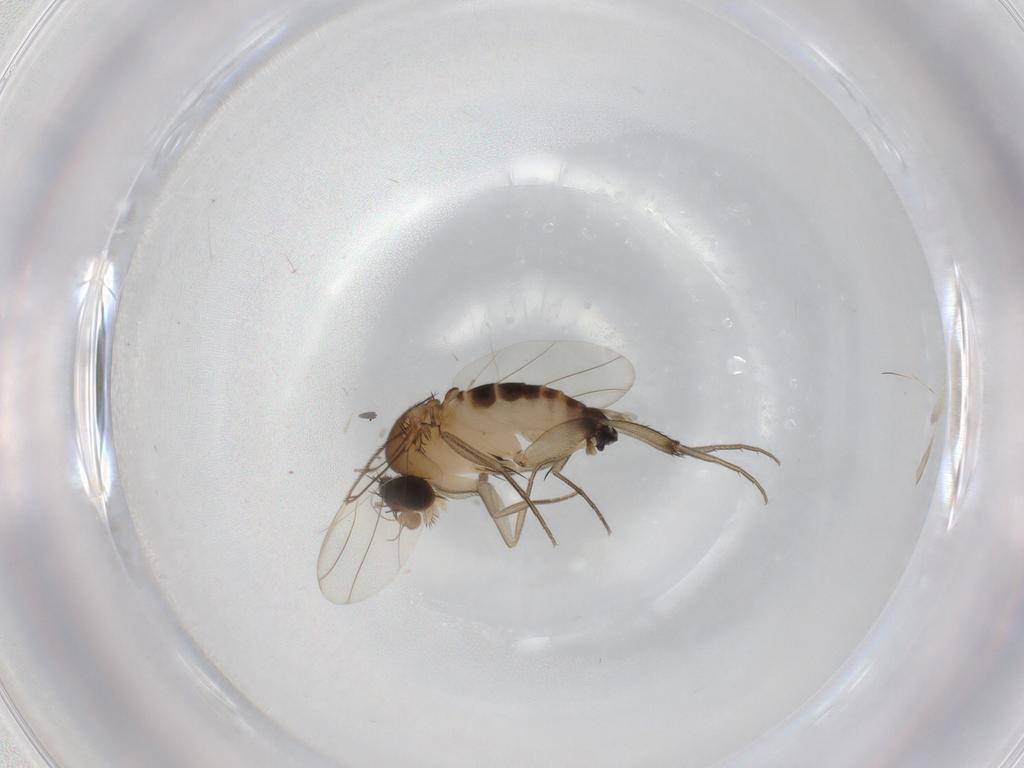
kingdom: Animalia
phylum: Arthropoda
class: Insecta
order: Diptera
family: Phoridae
